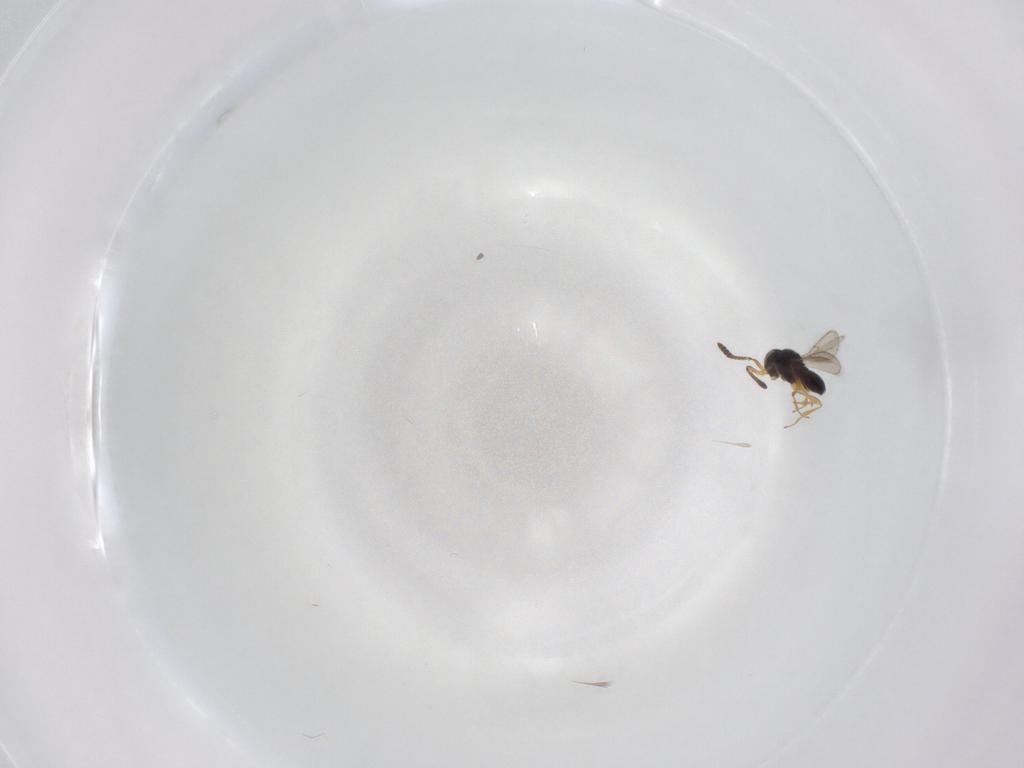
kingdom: Animalia
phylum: Arthropoda
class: Insecta
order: Hymenoptera
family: Scelionidae
